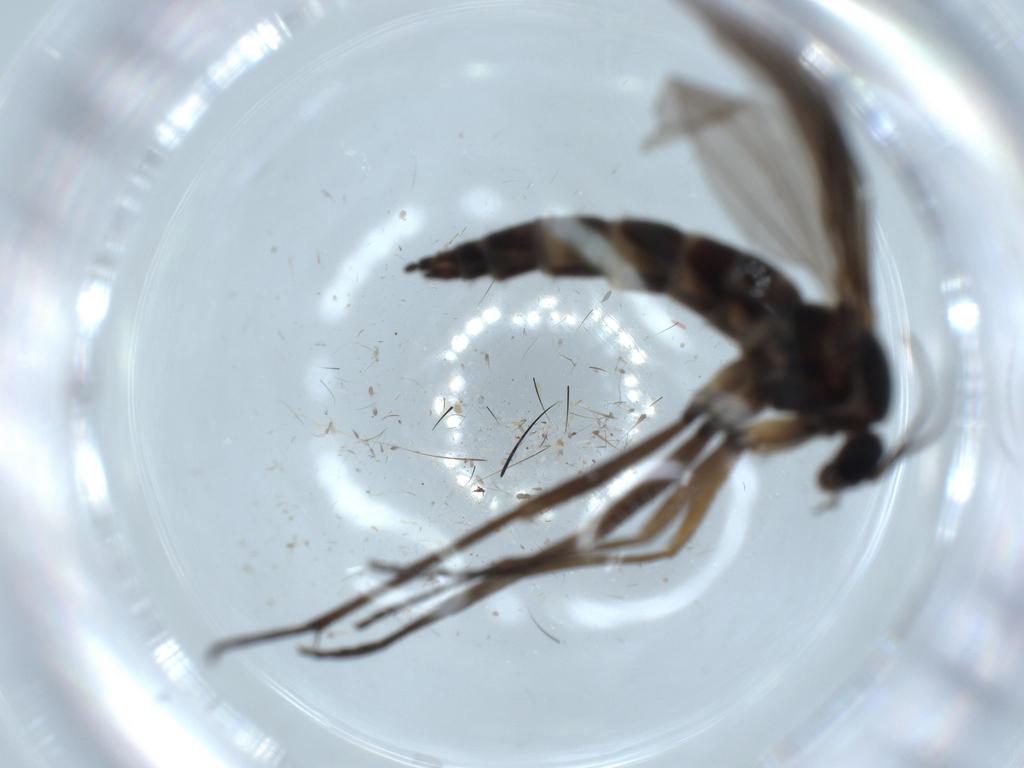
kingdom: Animalia
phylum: Arthropoda
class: Insecta
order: Diptera
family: Sciaridae
